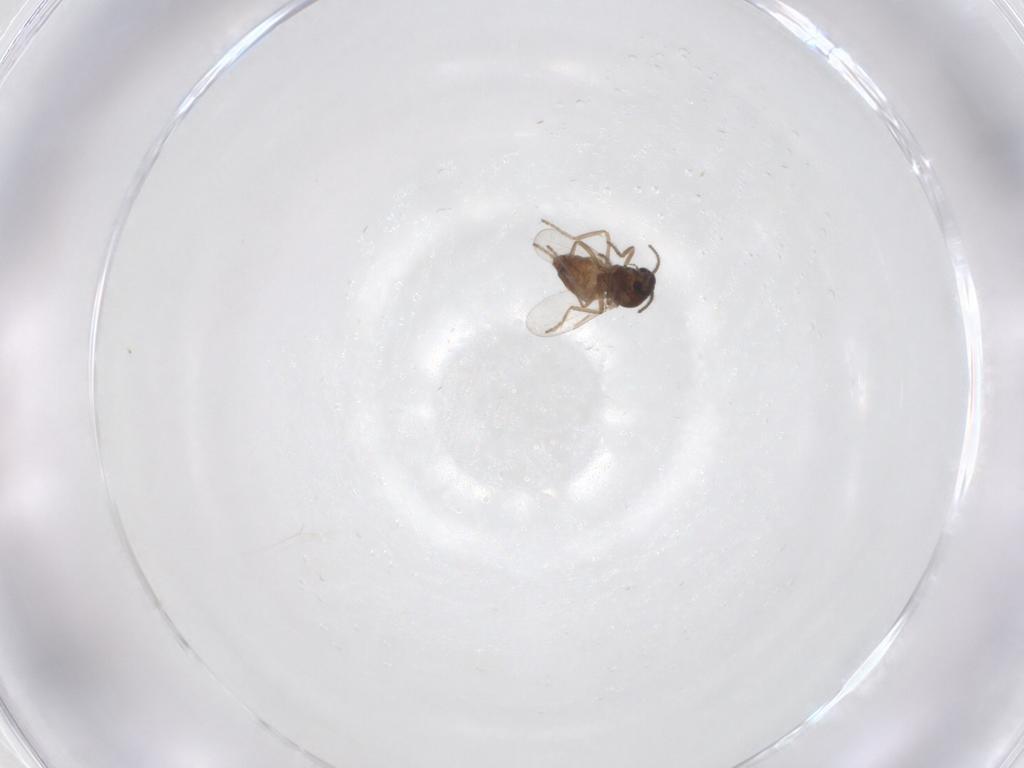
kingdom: Animalia
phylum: Arthropoda
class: Insecta
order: Diptera
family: Ceratopogonidae
